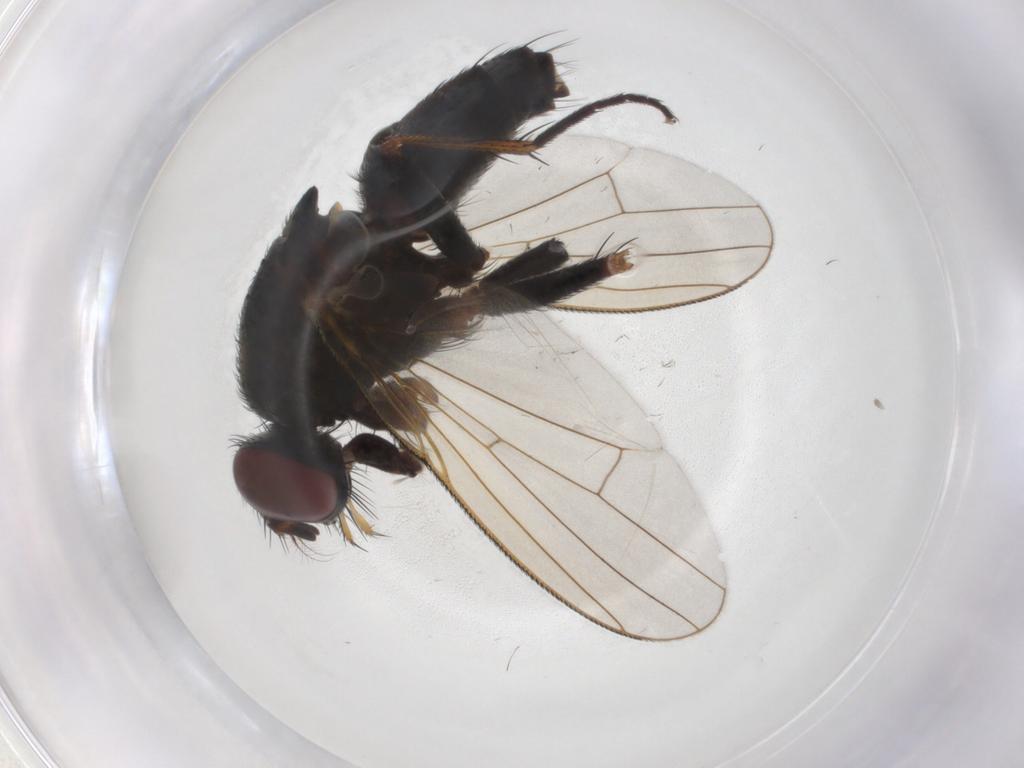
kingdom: Animalia
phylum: Arthropoda
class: Insecta
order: Diptera
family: Muscidae
